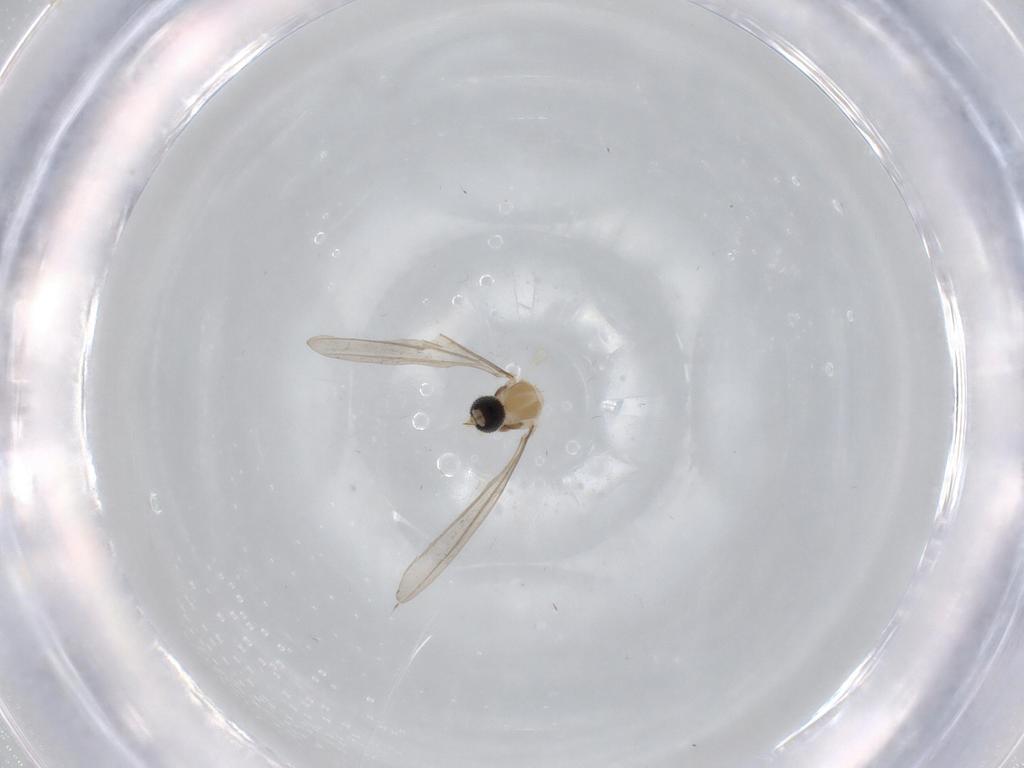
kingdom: Animalia
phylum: Arthropoda
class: Insecta
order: Diptera
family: Cecidomyiidae
